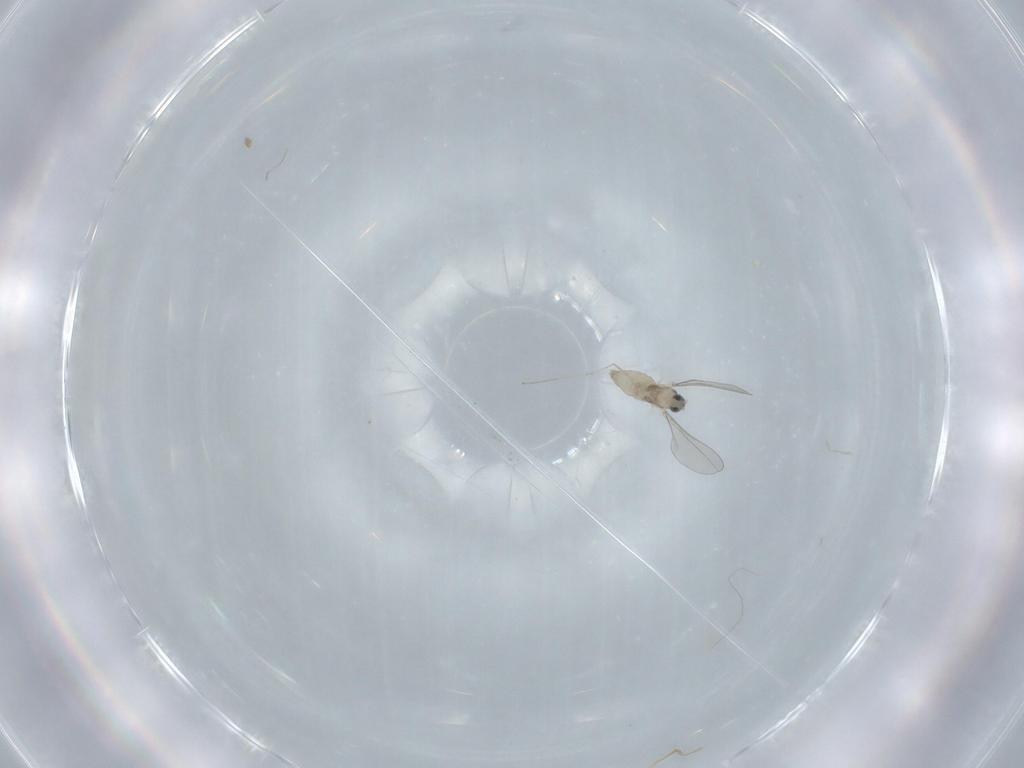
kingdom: Animalia
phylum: Arthropoda
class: Insecta
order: Diptera
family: Cecidomyiidae
